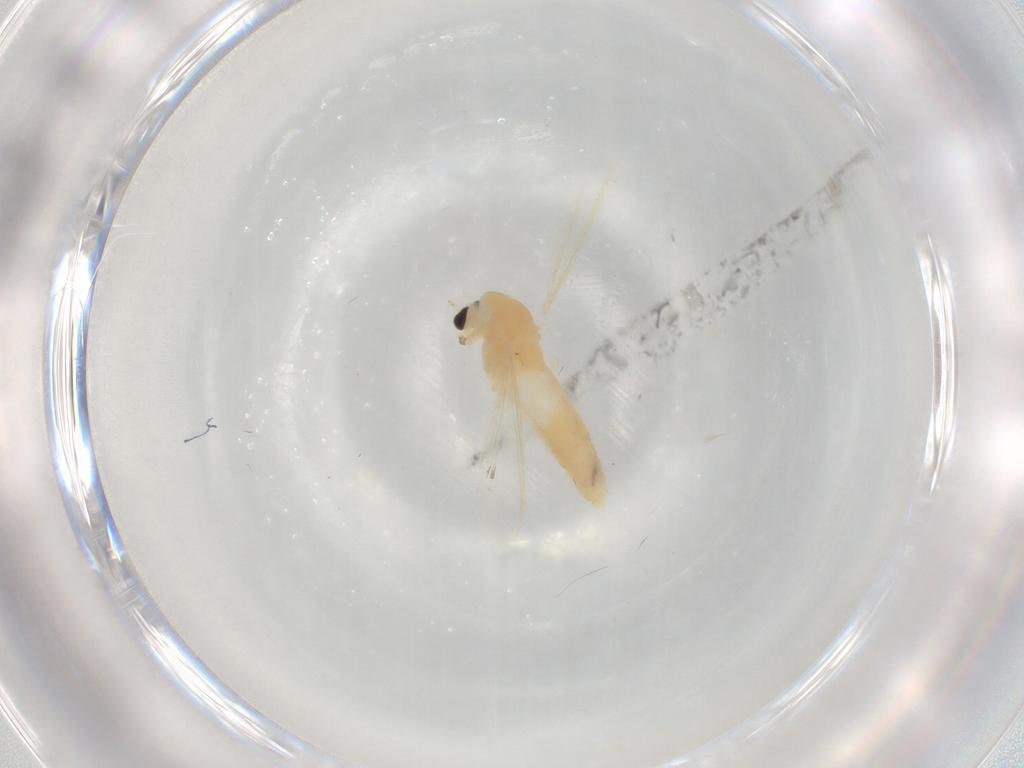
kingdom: Animalia
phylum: Arthropoda
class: Insecta
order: Diptera
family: Chironomidae
